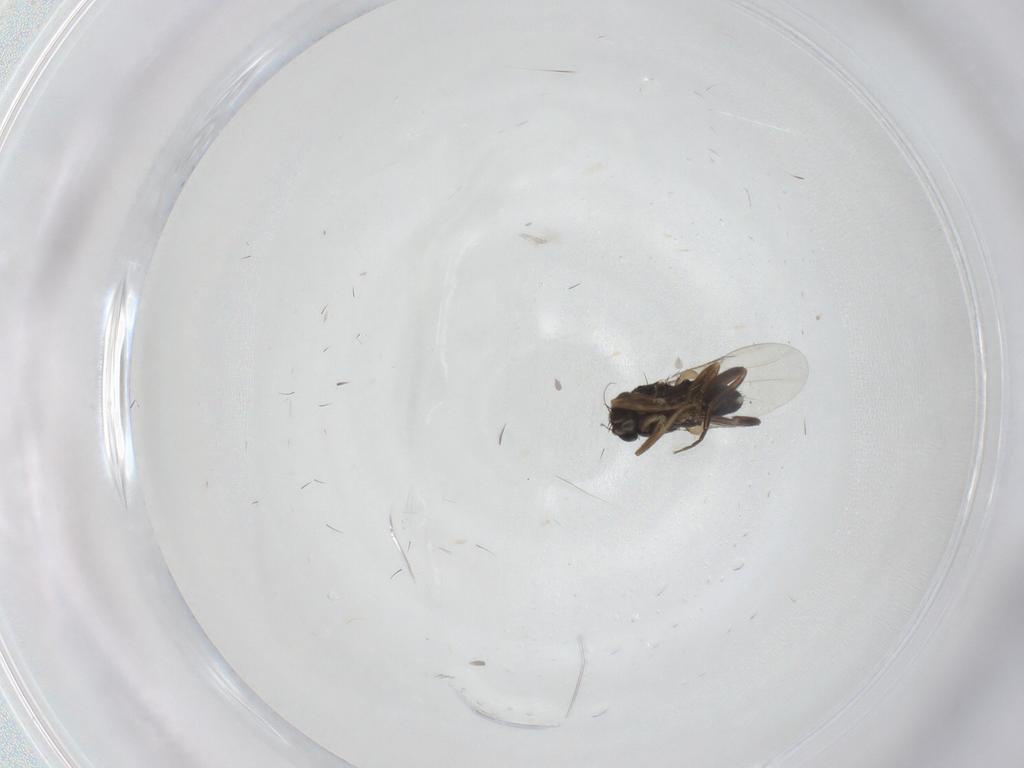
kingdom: Animalia
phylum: Arthropoda
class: Insecta
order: Diptera
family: Phoridae
